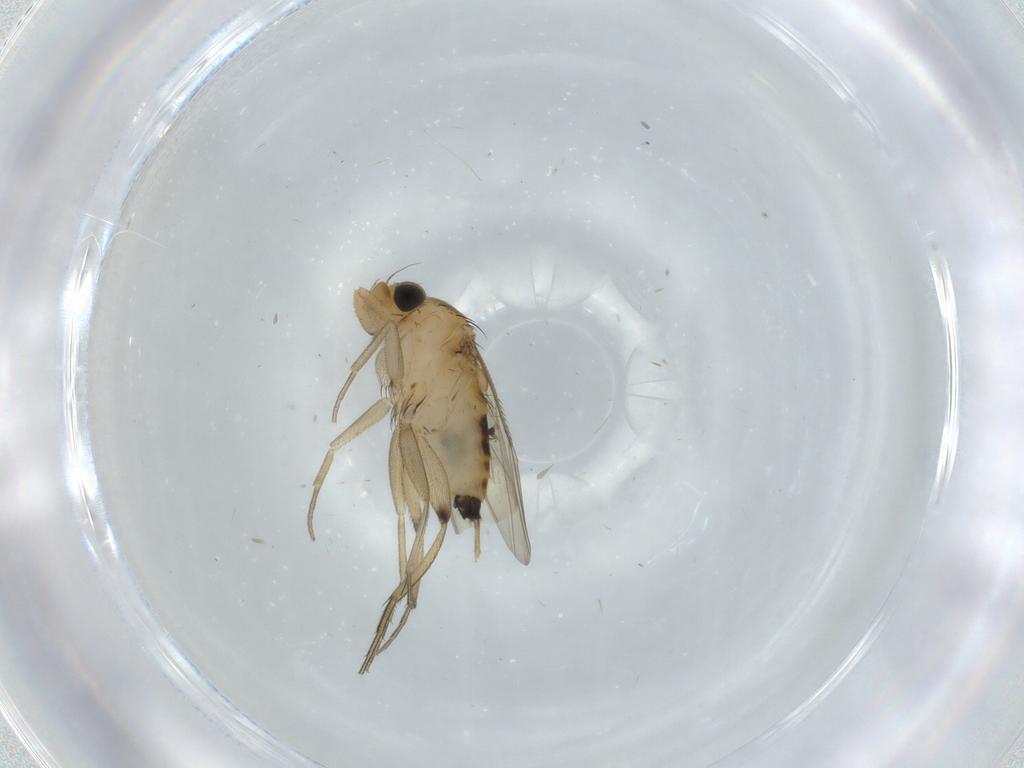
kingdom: Animalia
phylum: Arthropoda
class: Insecta
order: Diptera
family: Phoridae
